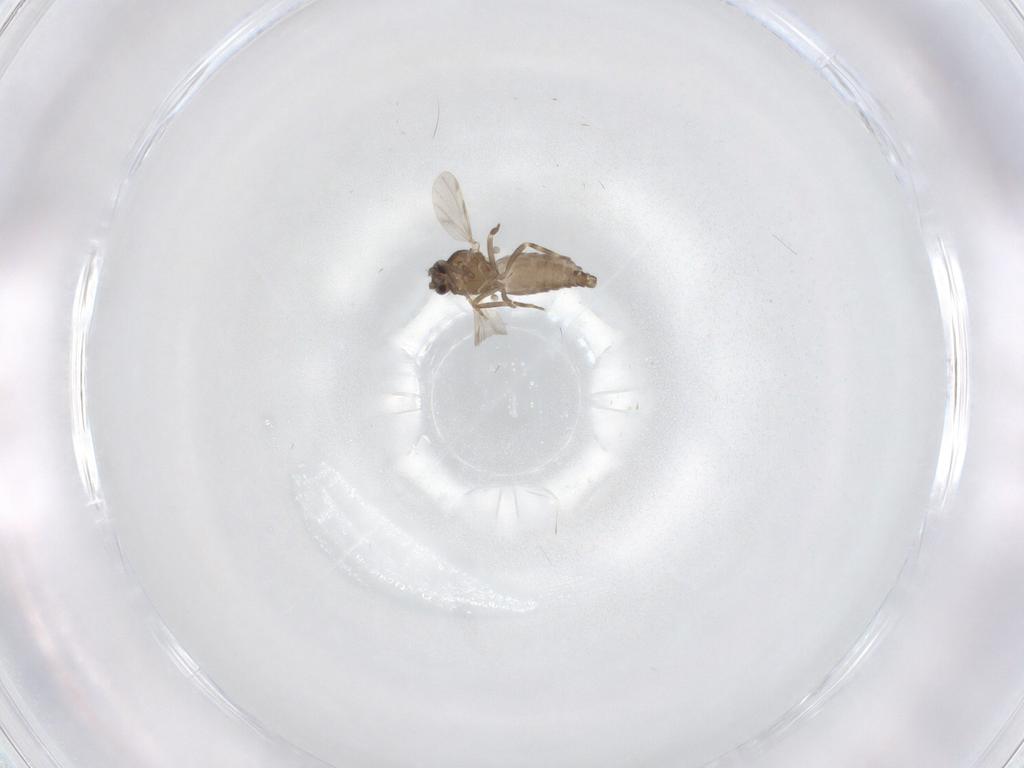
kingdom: Animalia
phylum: Arthropoda
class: Insecta
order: Diptera
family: Ceratopogonidae
